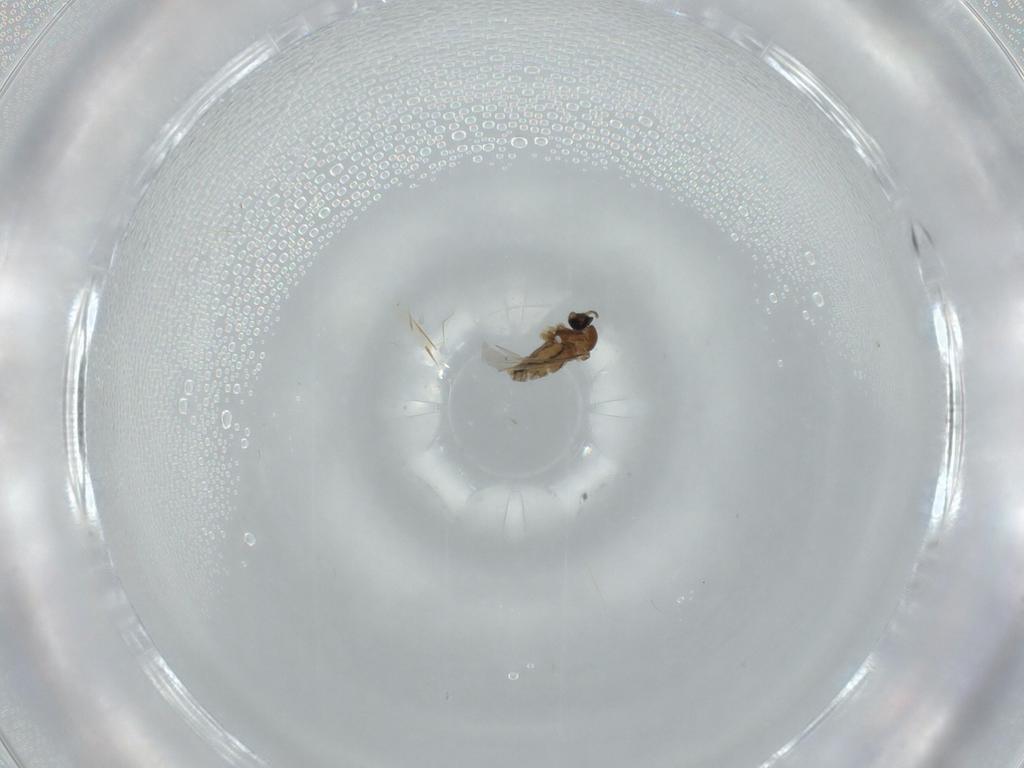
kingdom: Animalia
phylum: Arthropoda
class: Insecta
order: Diptera
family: Cecidomyiidae
